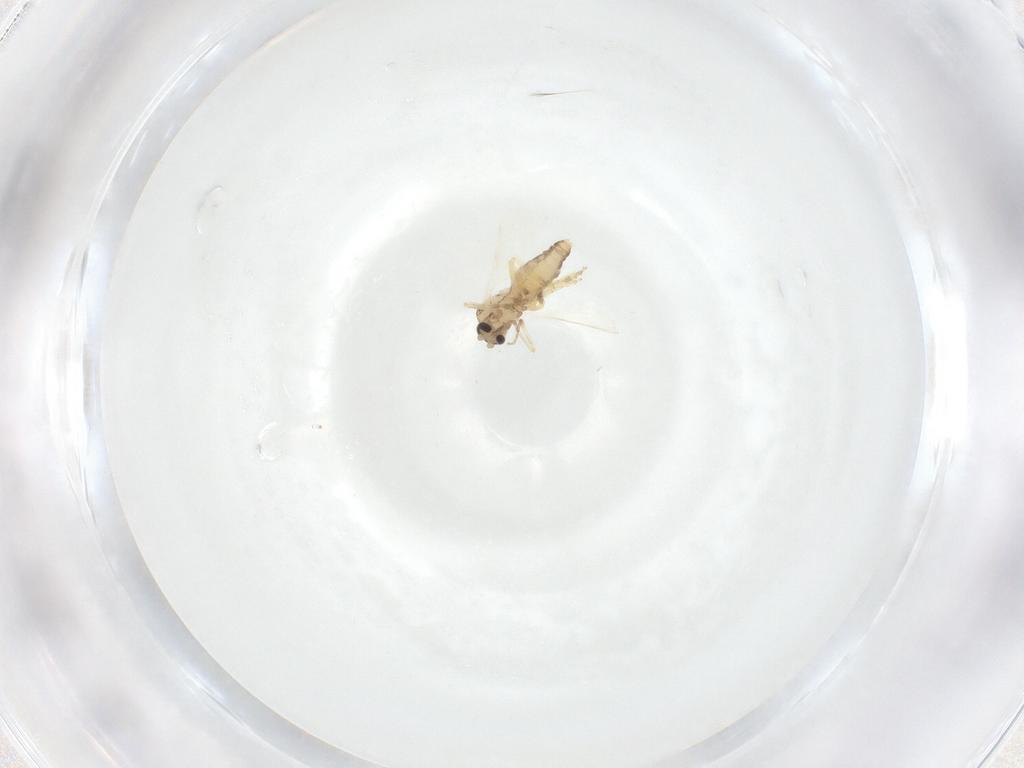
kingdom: Animalia
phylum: Arthropoda
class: Insecta
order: Diptera
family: Ceratopogonidae
